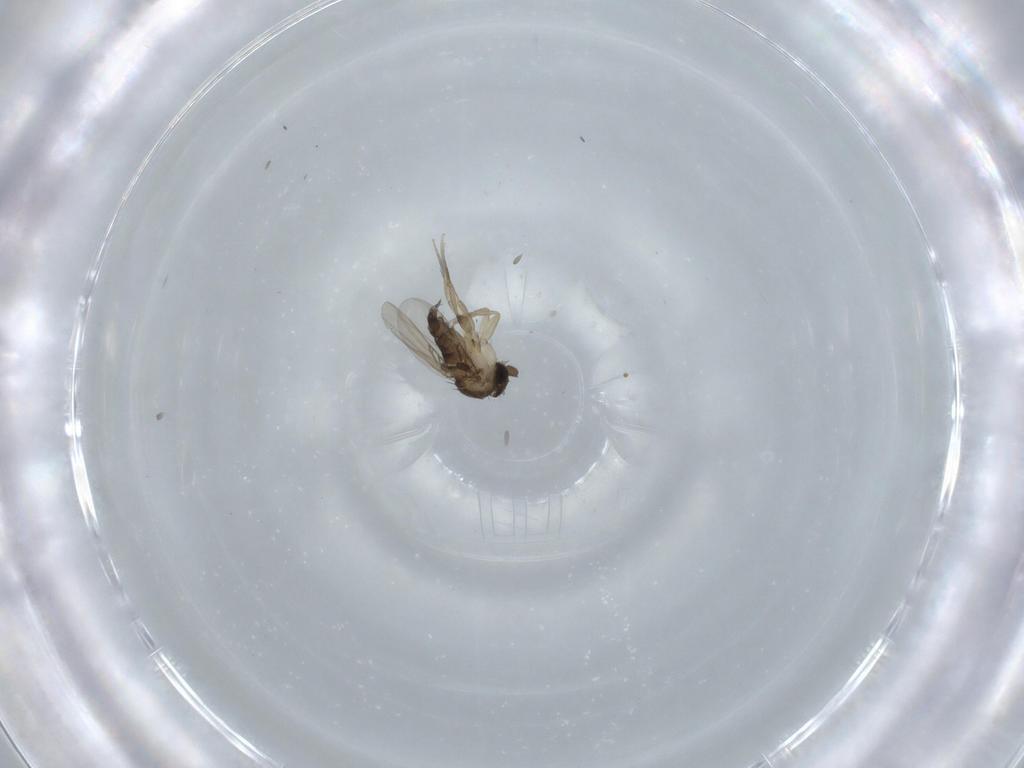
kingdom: Animalia
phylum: Arthropoda
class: Insecta
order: Diptera
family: Phoridae
